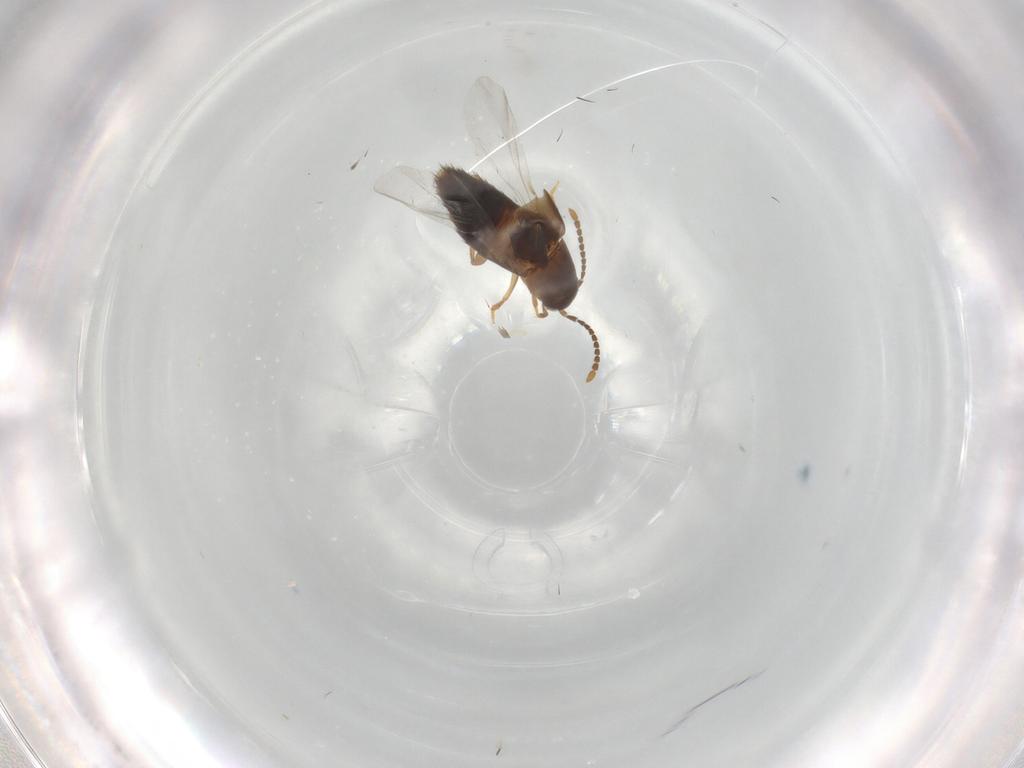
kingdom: Animalia
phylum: Arthropoda
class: Insecta
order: Coleoptera
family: Staphylinidae
